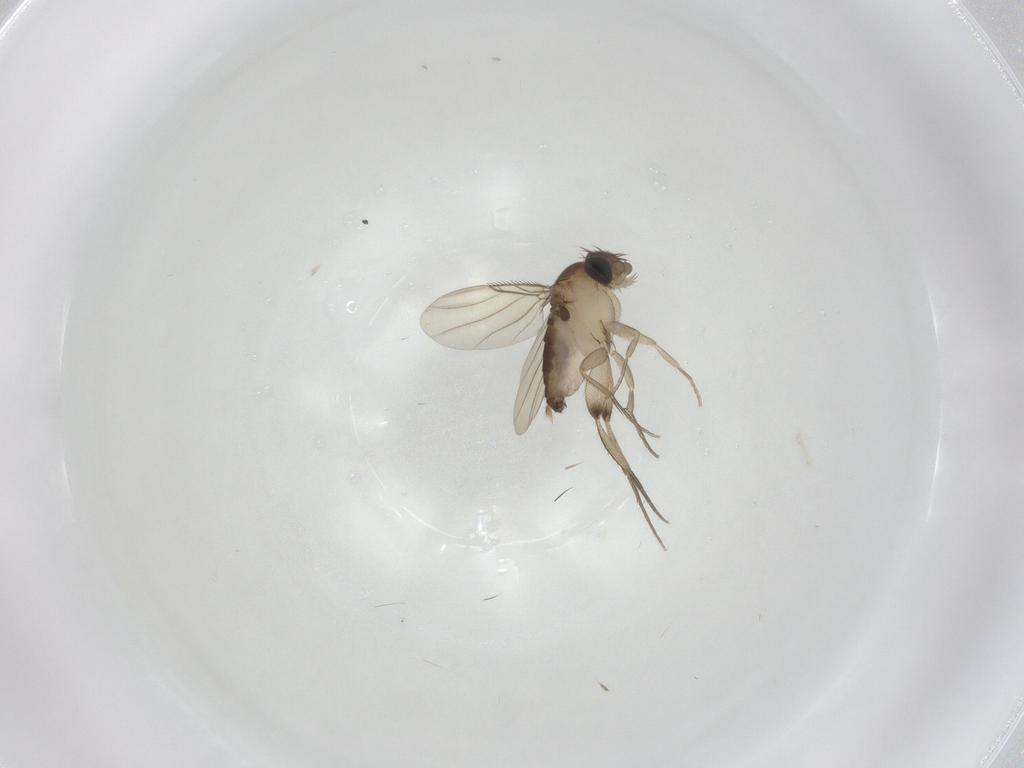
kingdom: Animalia
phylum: Arthropoda
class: Insecta
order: Diptera
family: Phoridae
